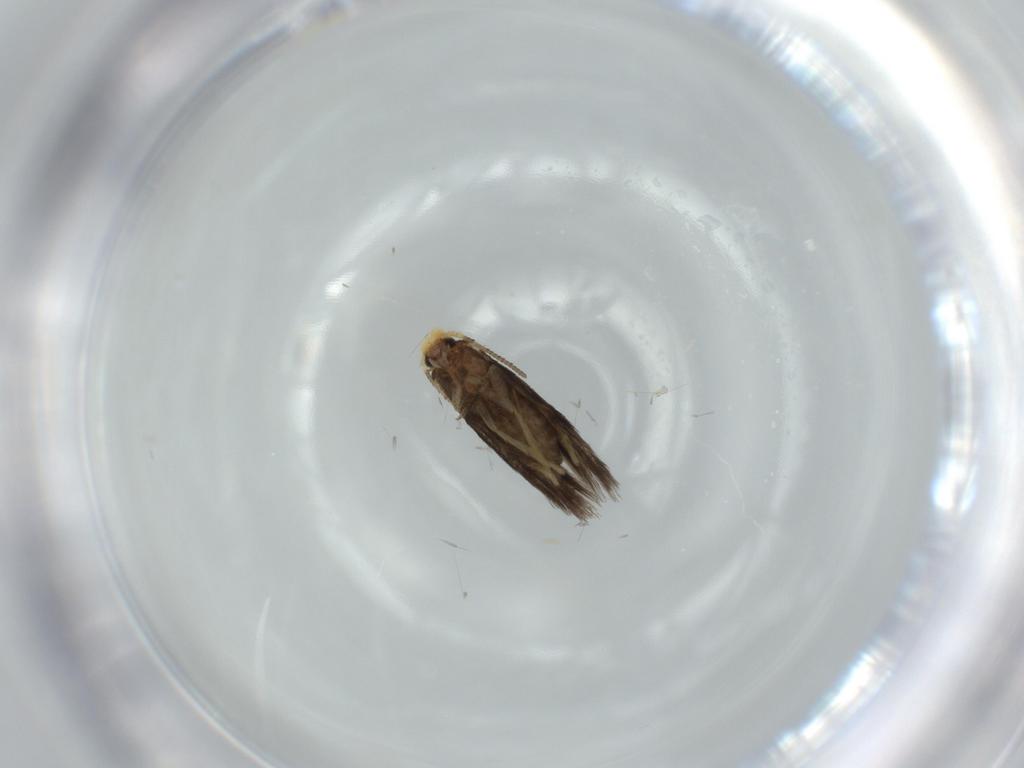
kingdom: Animalia
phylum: Arthropoda
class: Insecta
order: Lepidoptera
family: Nepticulidae
